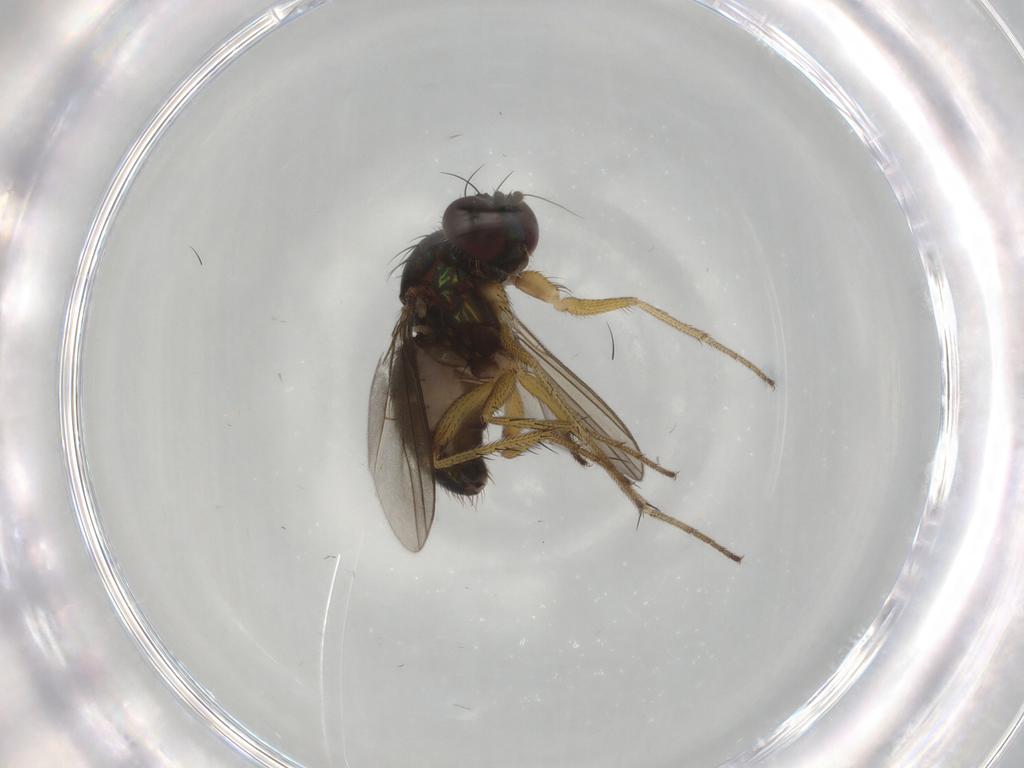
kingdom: Animalia
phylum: Arthropoda
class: Insecta
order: Diptera
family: Dolichopodidae
